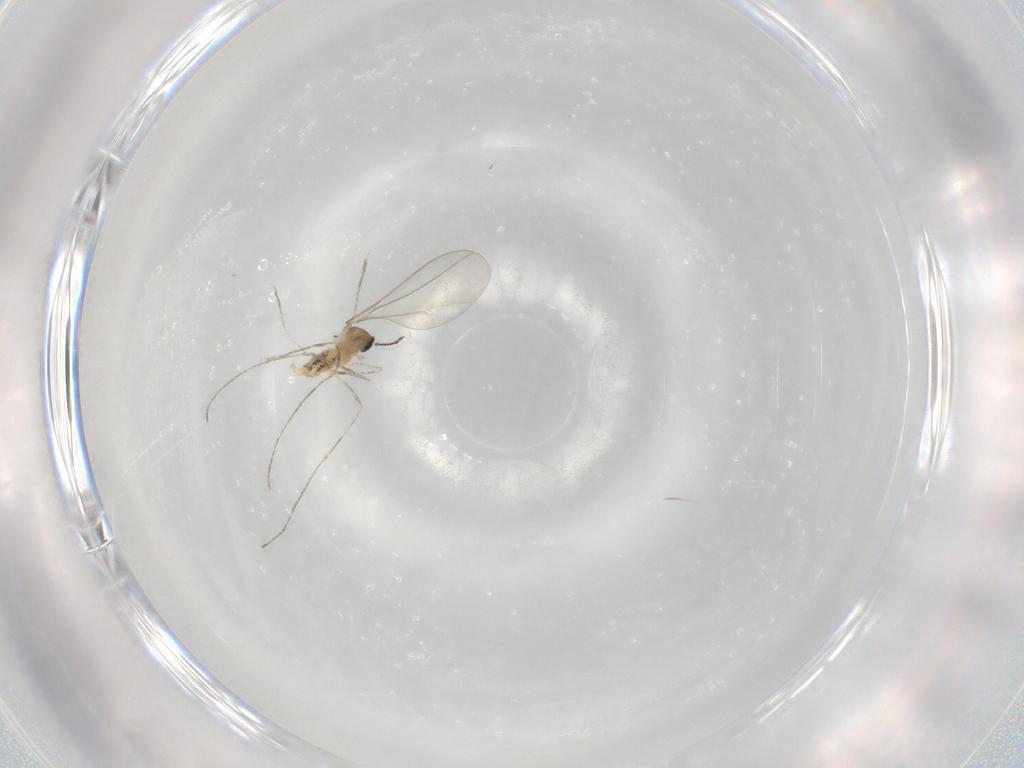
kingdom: Animalia
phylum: Arthropoda
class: Insecta
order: Diptera
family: Cecidomyiidae
